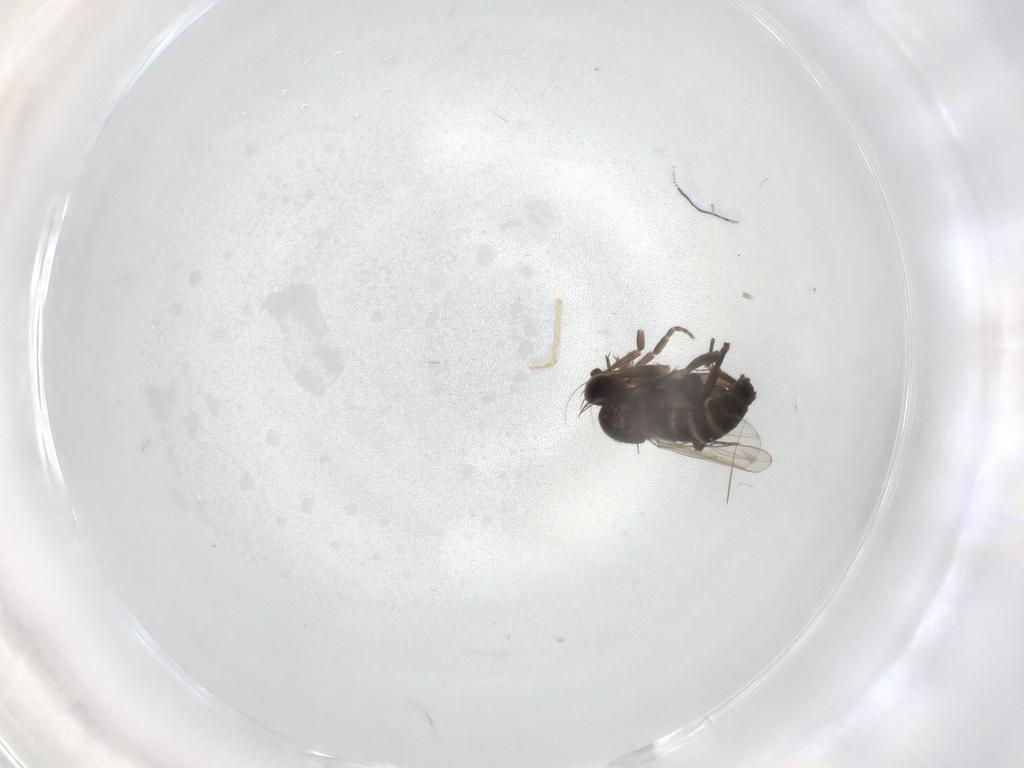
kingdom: Animalia
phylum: Arthropoda
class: Insecta
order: Diptera
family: Phoridae
